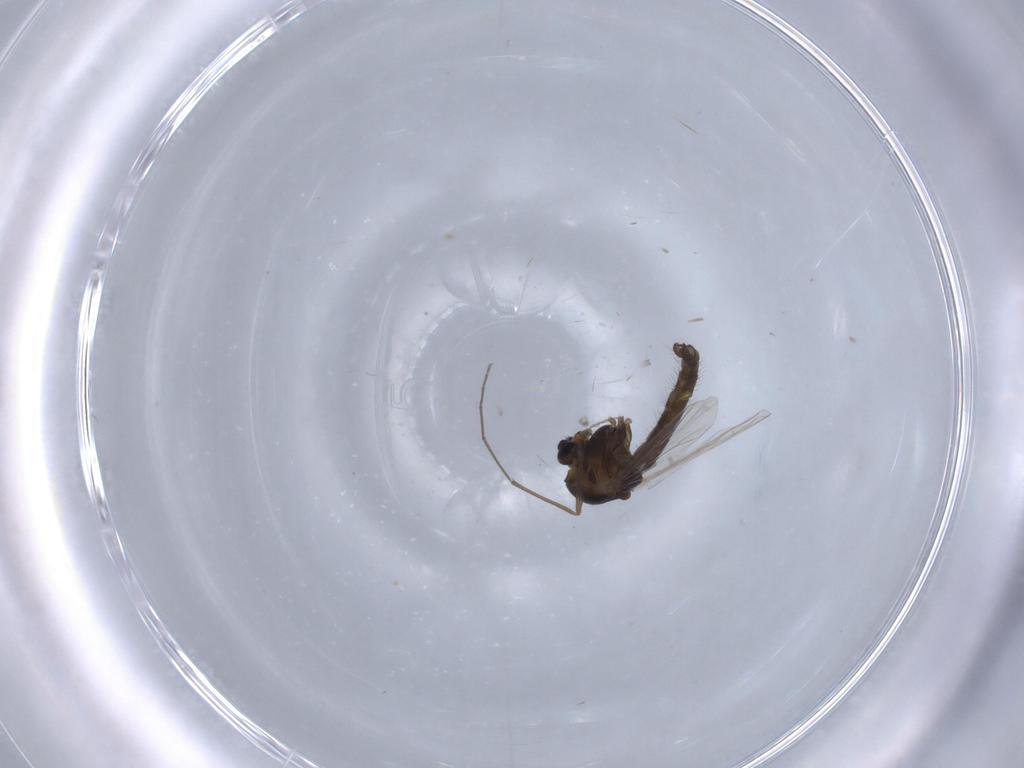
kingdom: Animalia
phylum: Arthropoda
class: Insecta
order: Diptera
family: Chironomidae
